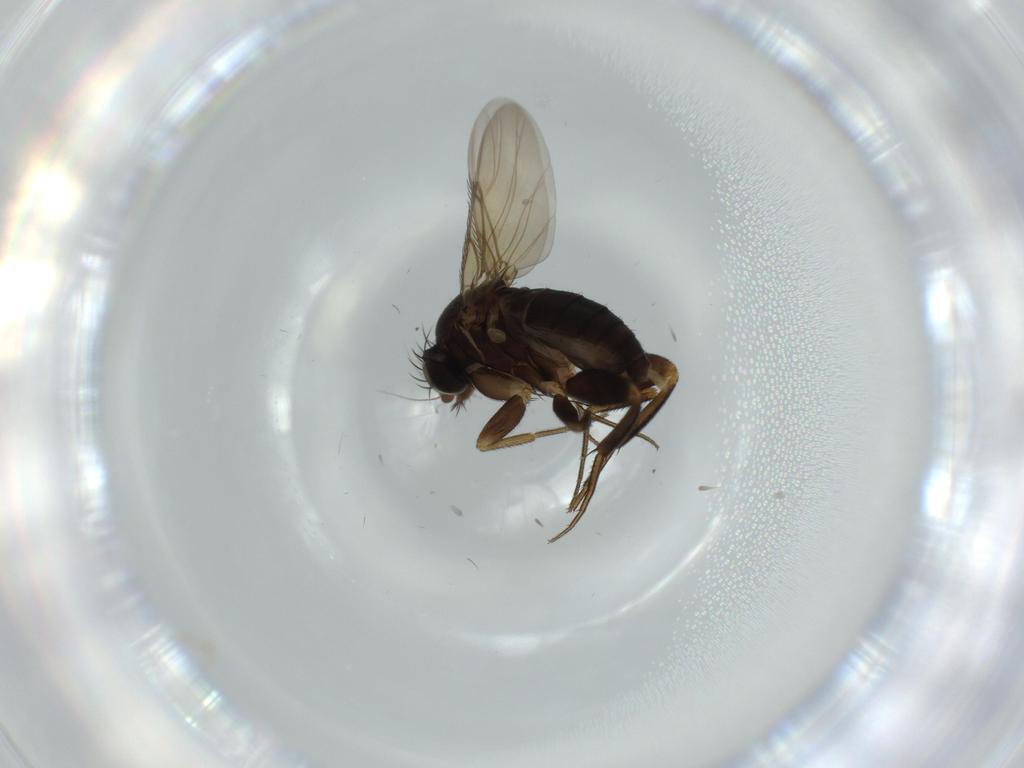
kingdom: Animalia
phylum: Arthropoda
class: Insecta
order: Diptera
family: Phoridae
